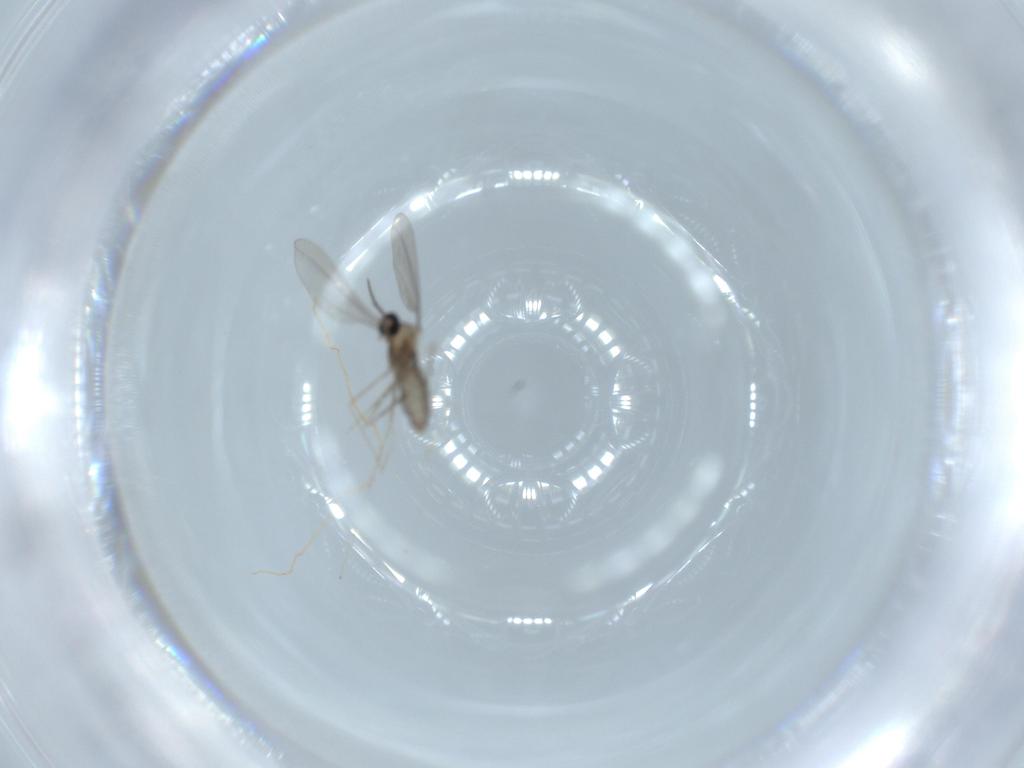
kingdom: Animalia
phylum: Arthropoda
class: Insecta
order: Diptera
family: Cecidomyiidae
